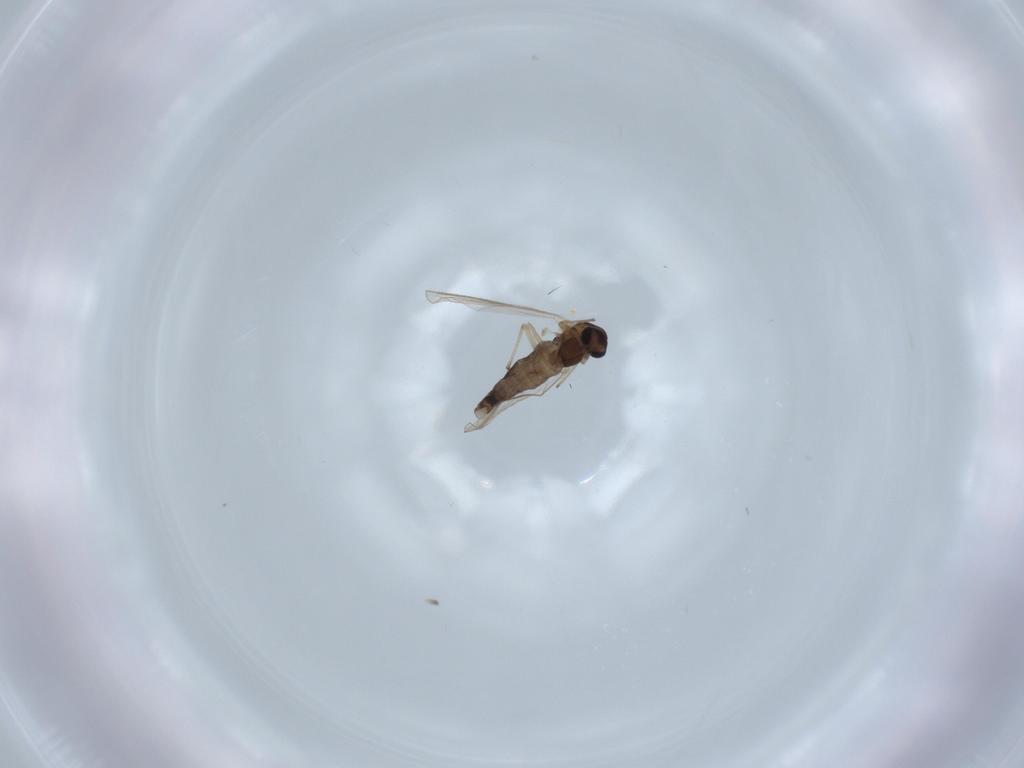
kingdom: Animalia
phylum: Arthropoda
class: Insecta
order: Diptera
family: Chironomidae
